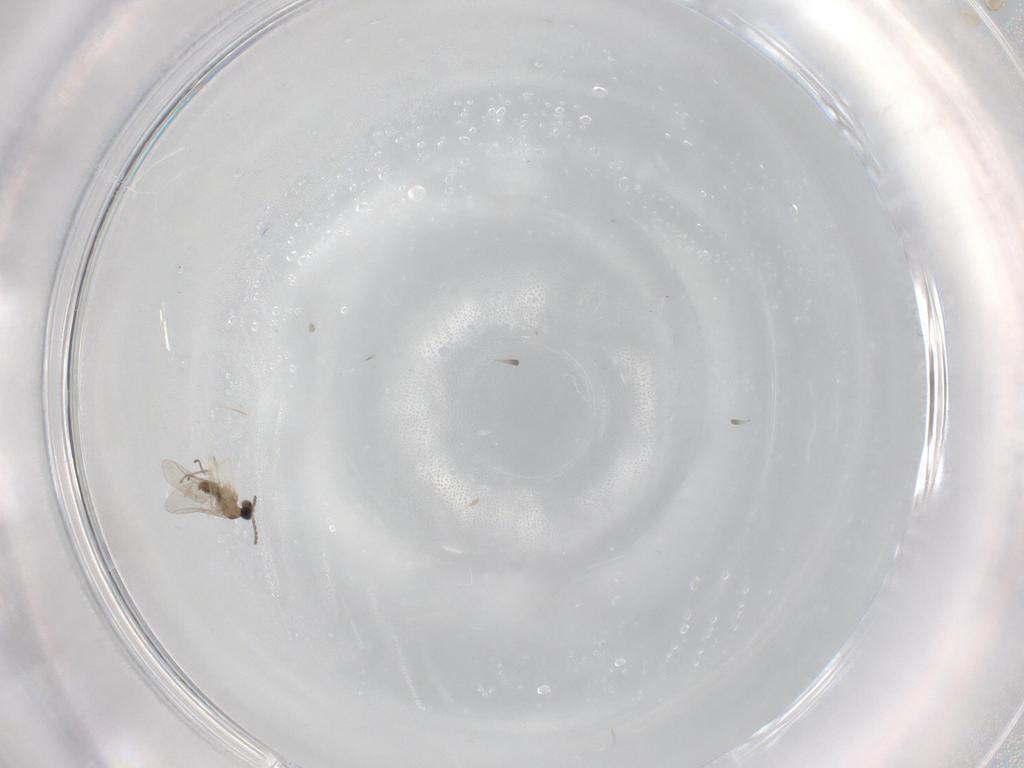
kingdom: Animalia
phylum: Arthropoda
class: Insecta
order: Diptera
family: Cecidomyiidae
